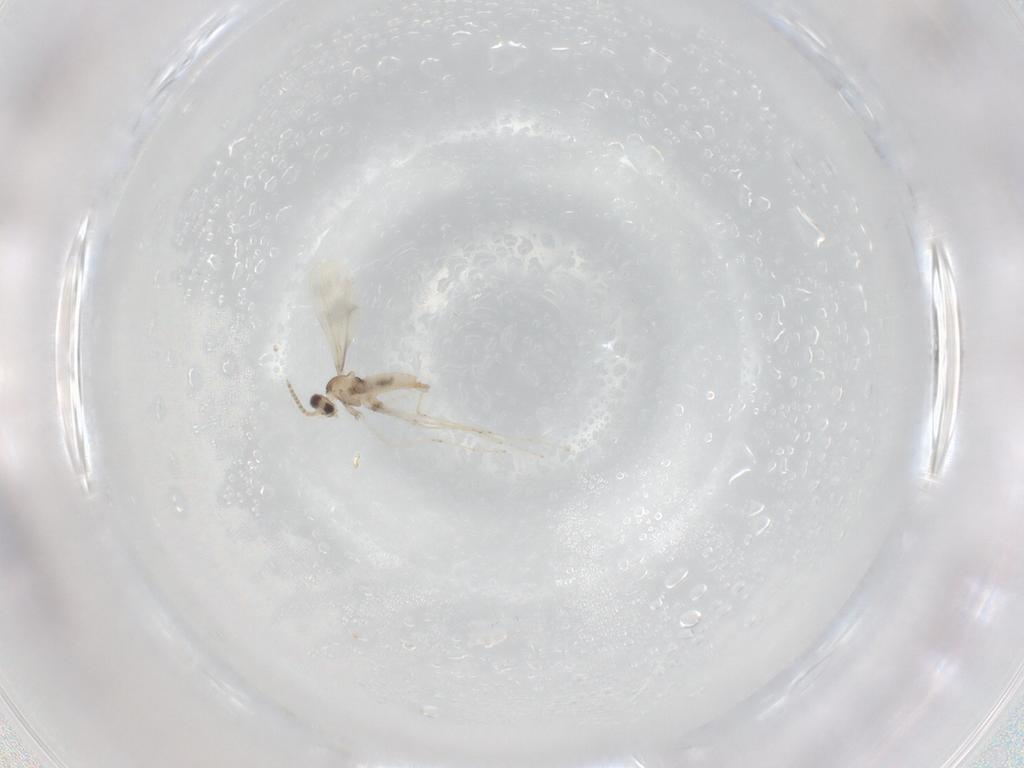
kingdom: Animalia
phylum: Arthropoda
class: Insecta
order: Diptera
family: Cecidomyiidae
